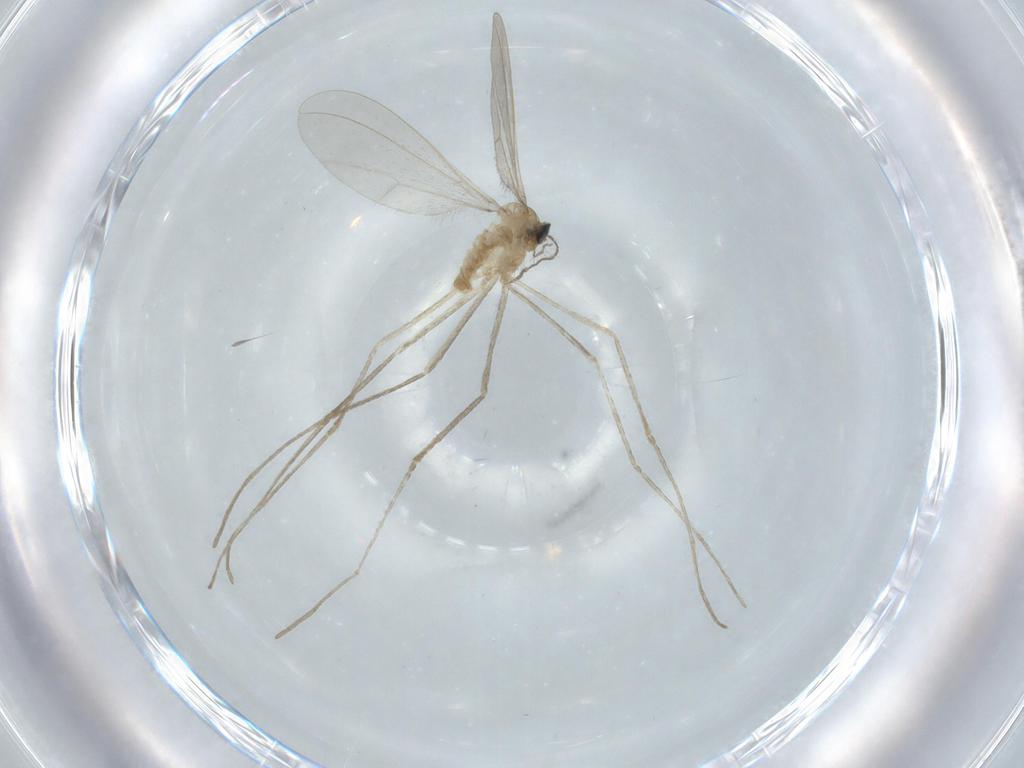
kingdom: Animalia
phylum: Arthropoda
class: Insecta
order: Diptera
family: Cecidomyiidae
